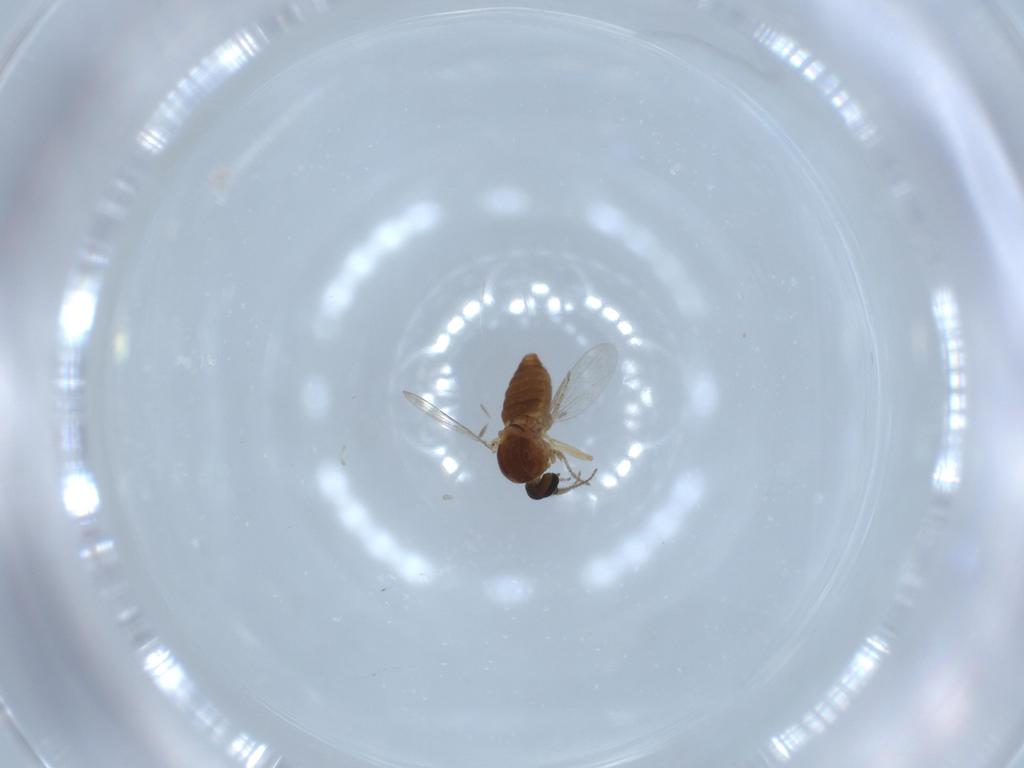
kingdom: Animalia
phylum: Arthropoda
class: Insecta
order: Diptera
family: Ceratopogonidae
